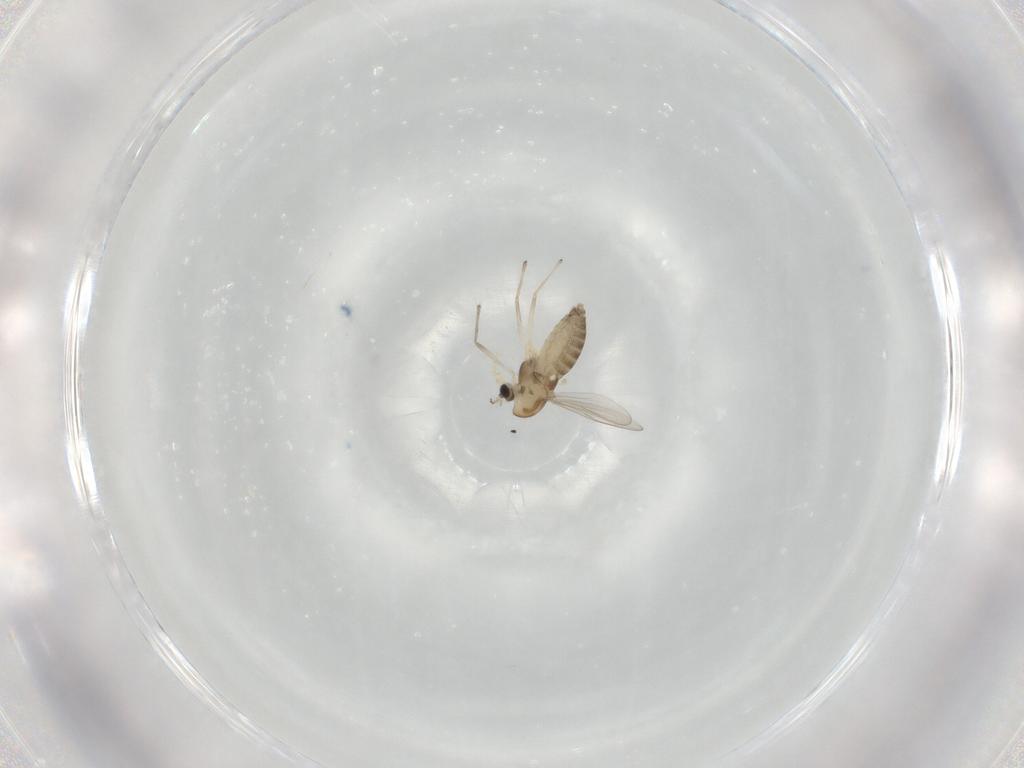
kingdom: Animalia
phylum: Arthropoda
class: Insecta
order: Diptera
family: Chironomidae
